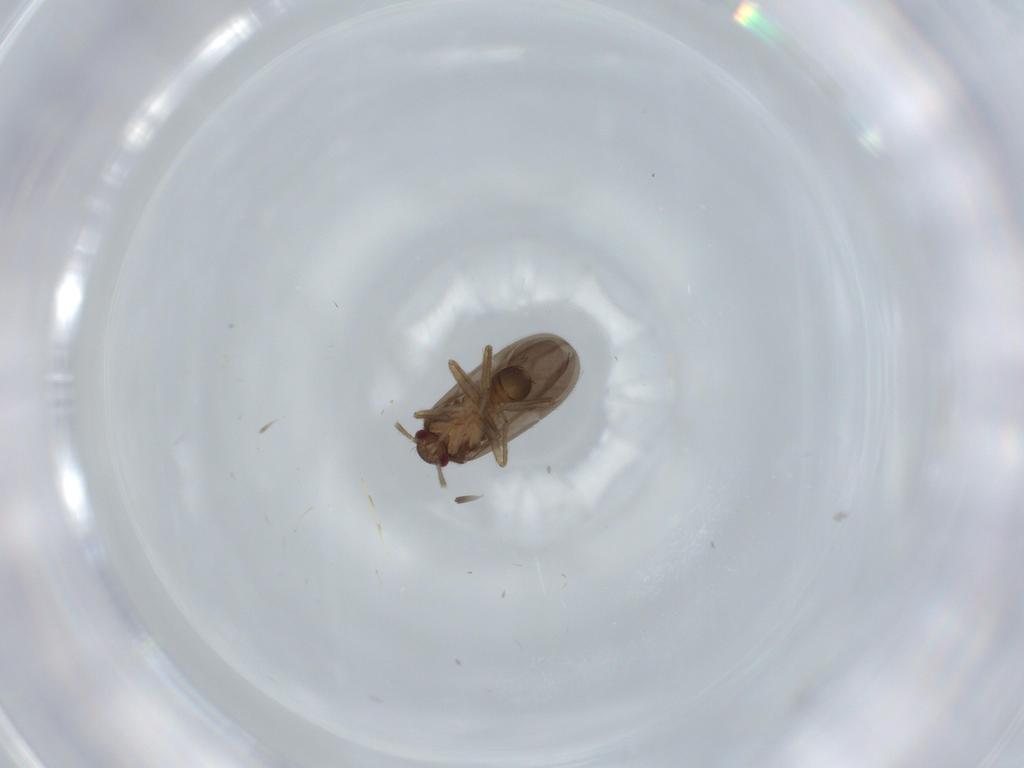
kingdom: Animalia
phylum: Arthropoda
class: Insecta
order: Hemiptera
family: Ceratocombidae
